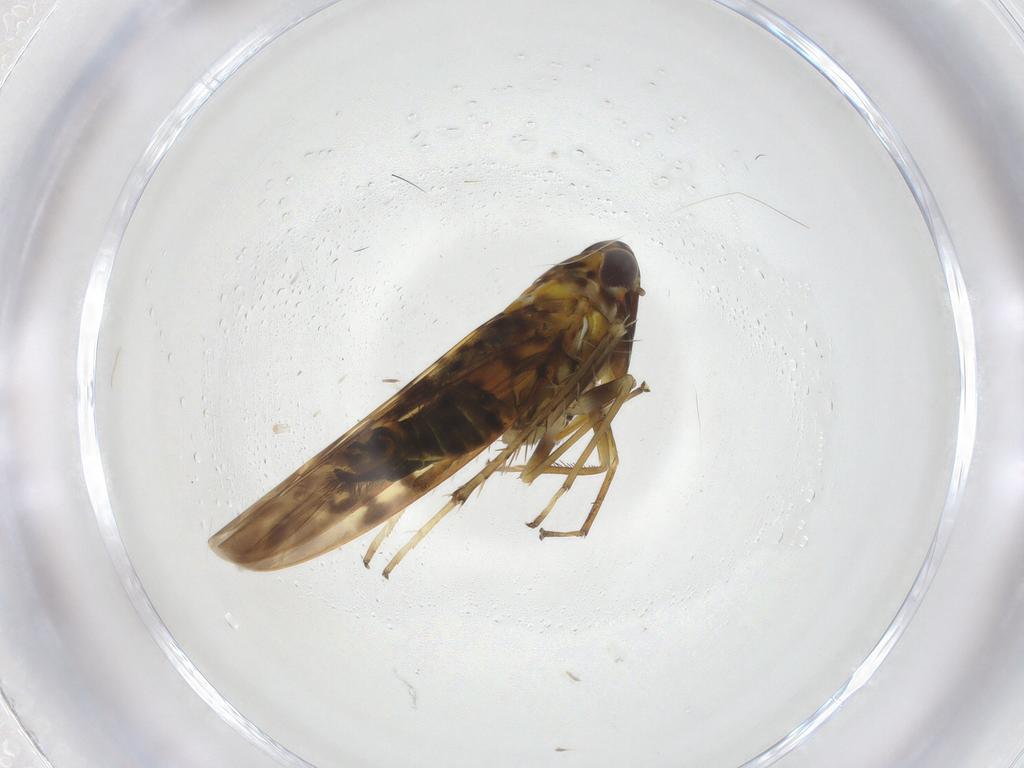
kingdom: Animalia
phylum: Arthropoda
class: Insecta
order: Hemiptera
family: Cicadellidae
